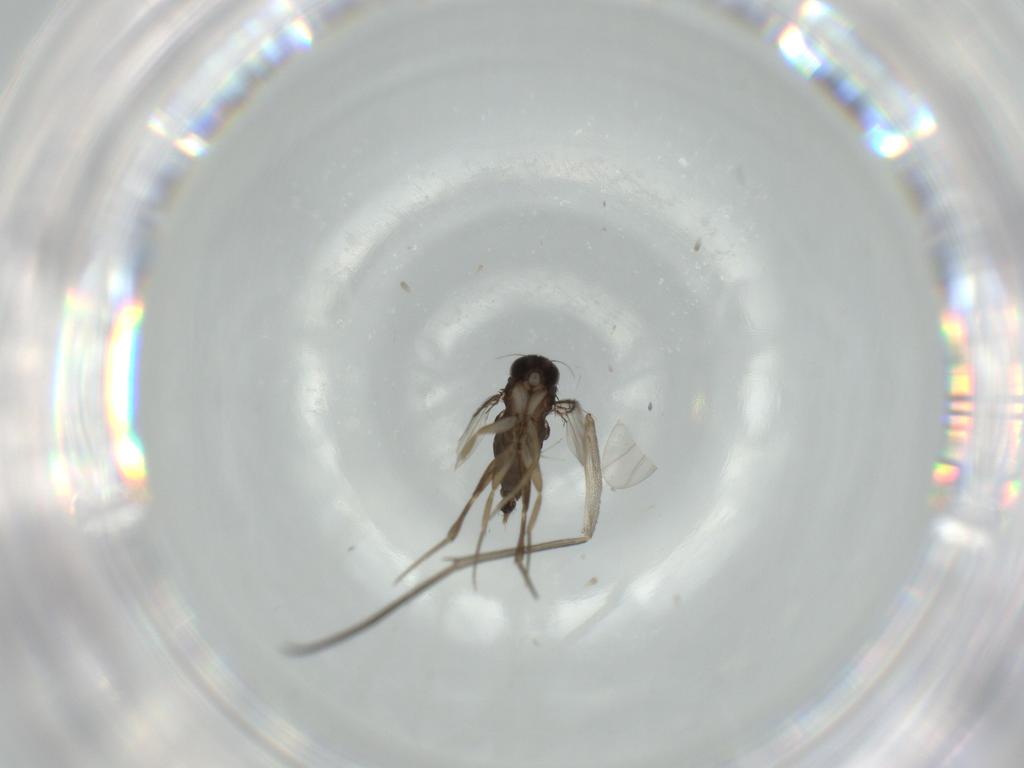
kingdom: Animalia
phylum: Arthropoda
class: Insecta
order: Diptera
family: Mycetophilidae
